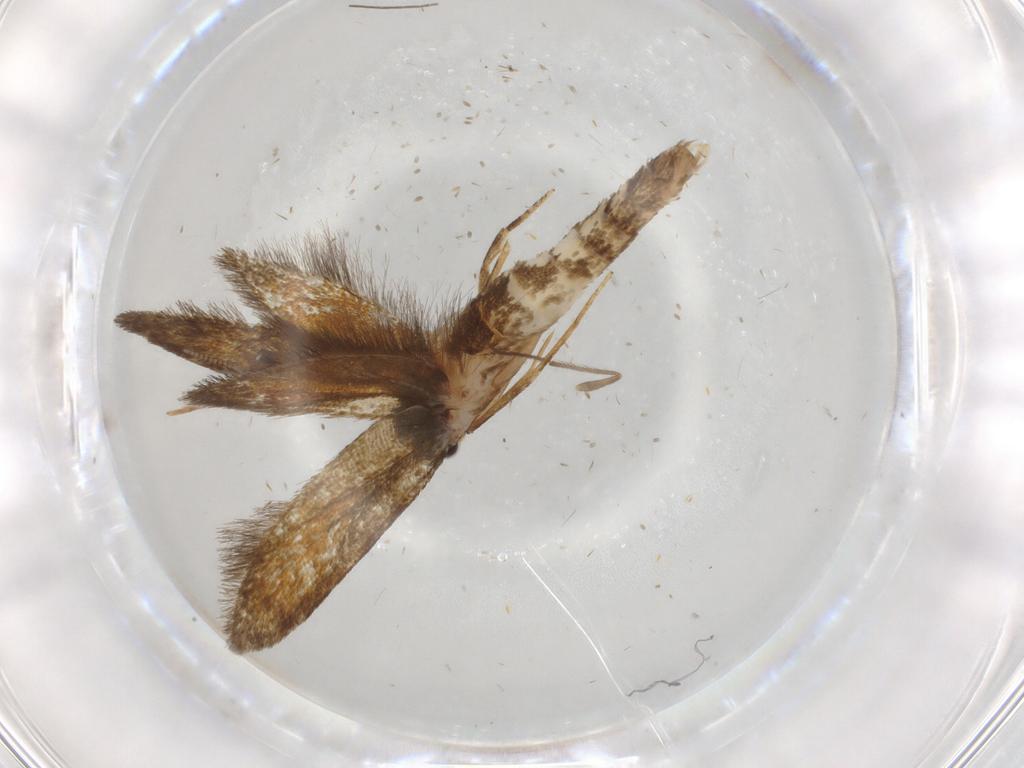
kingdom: Animalia
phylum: Arthropoda
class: Insecta
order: Lepidoptera
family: Tineidae
